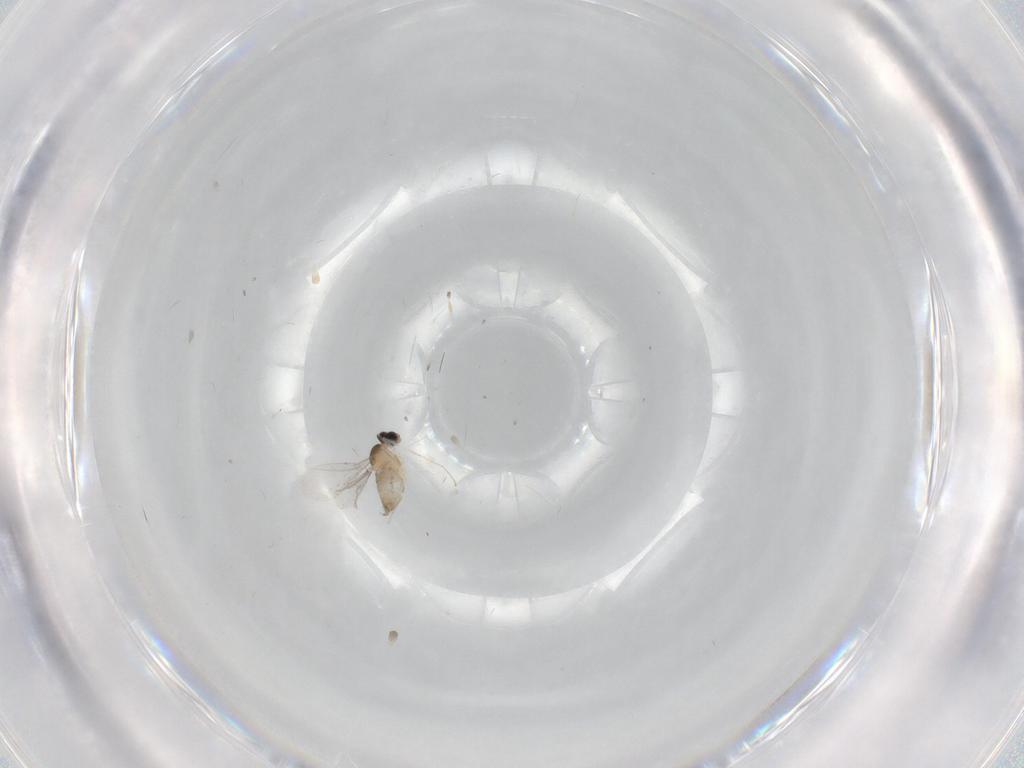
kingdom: Animalia
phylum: Arthropoda
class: Insecta
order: Diptera
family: Cecidomyiidae
